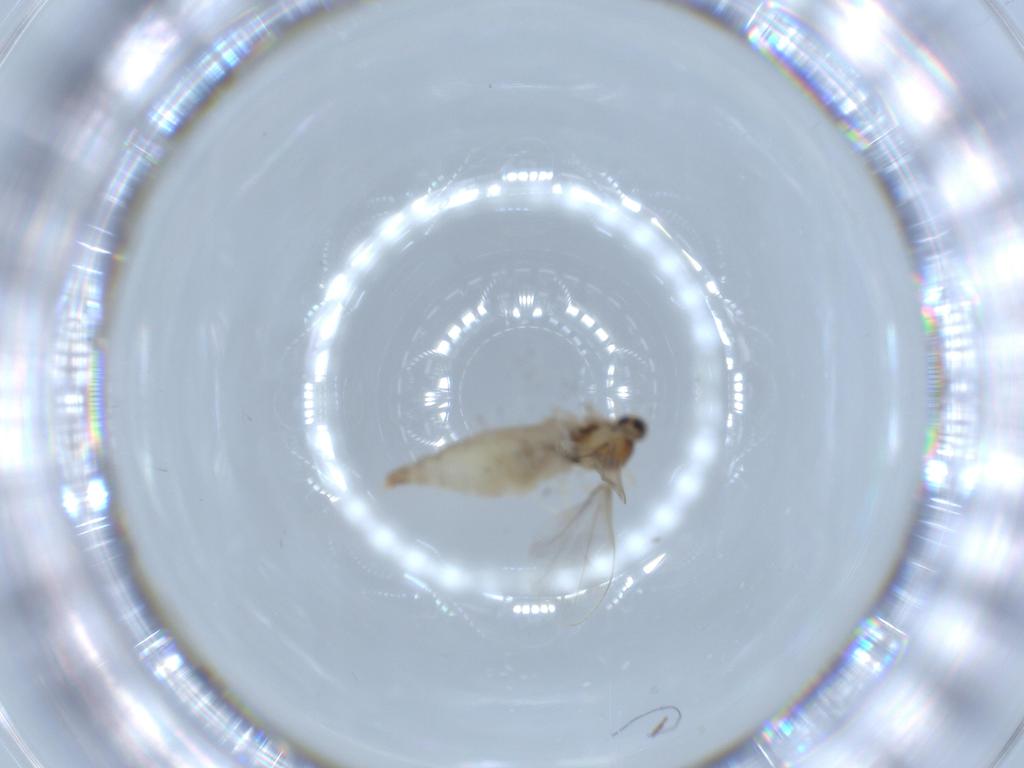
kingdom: Animalia
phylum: Arthropoda
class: Insecta
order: Diptera
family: Cecidomyiidae
